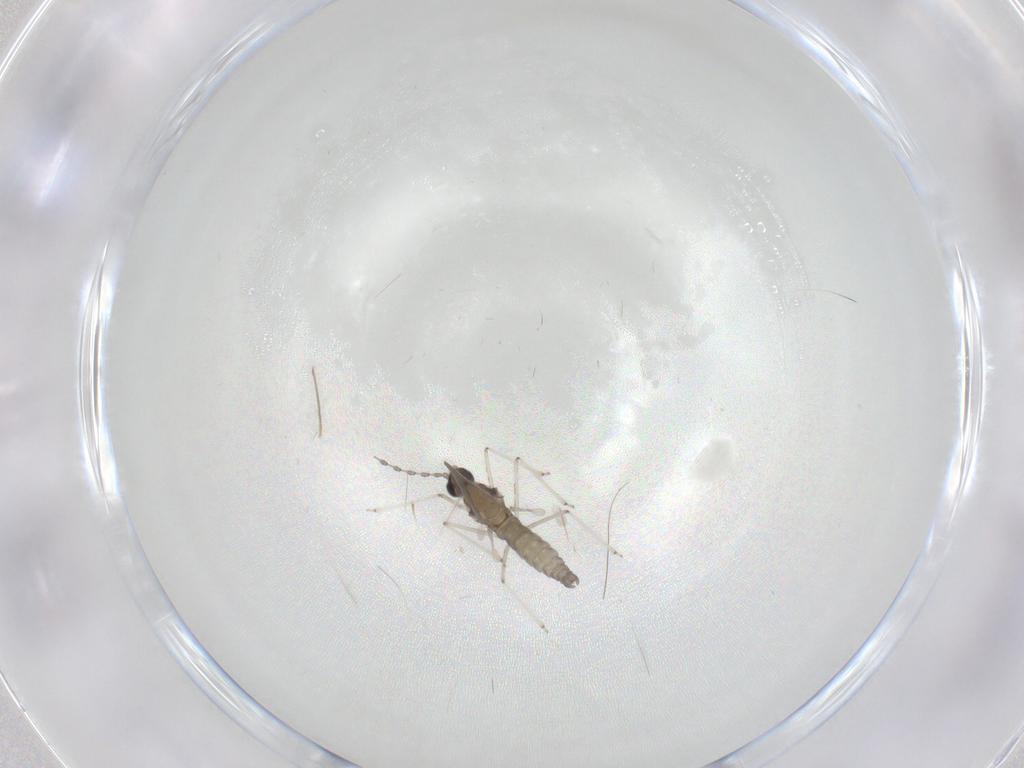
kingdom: Animalia
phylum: Arthropoda
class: Insecta
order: Diptera
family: Chironomidae
